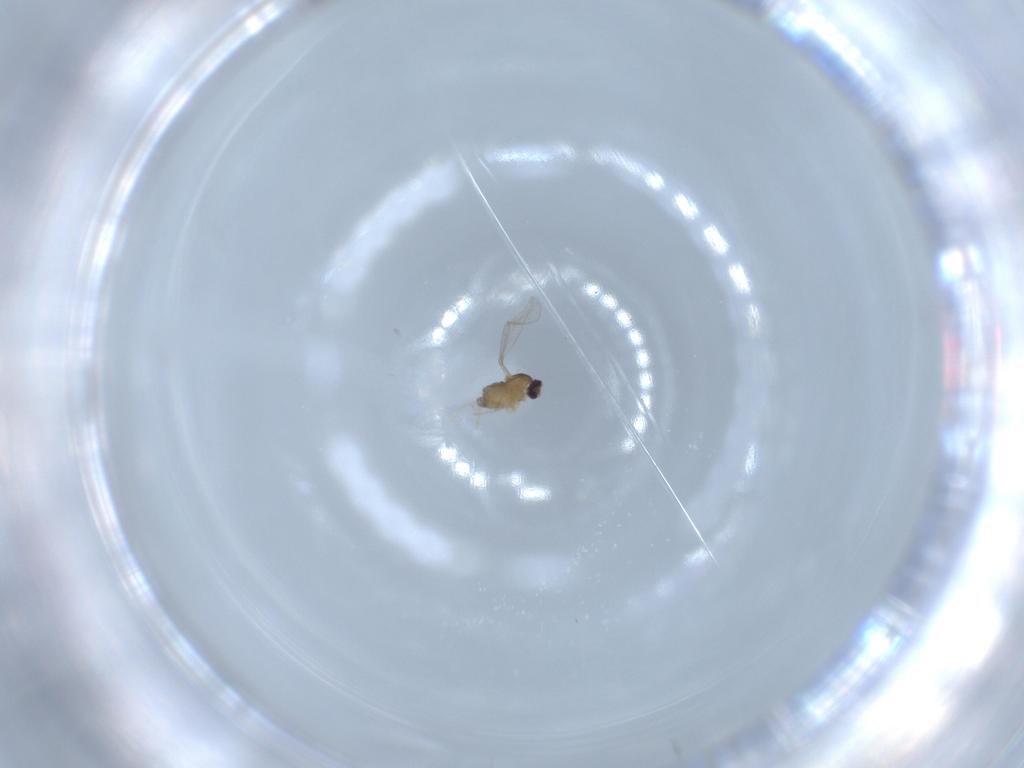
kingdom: Animalia
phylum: Arthropoda
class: Insecta
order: Diptera
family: Cecidomyiidae
